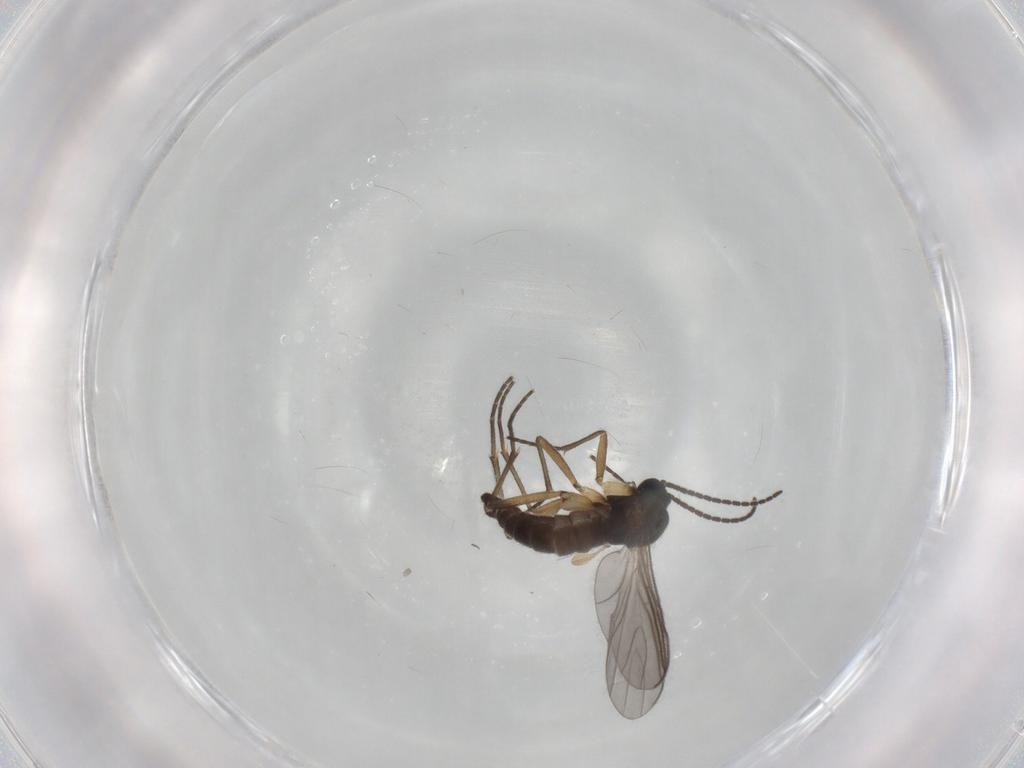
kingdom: Animalia
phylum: Arthropoda
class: Insecta
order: Diptera
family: Sciaridae
